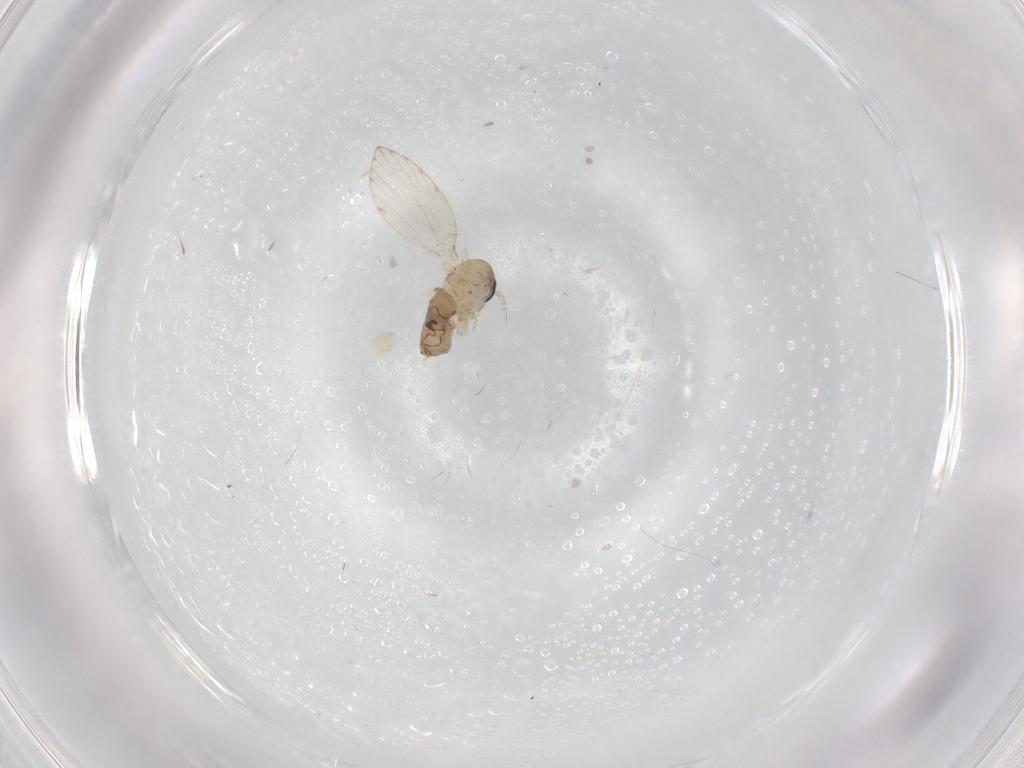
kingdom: Animalia
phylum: Arthropoda
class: Insecta
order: Diptera
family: Psychodidae
